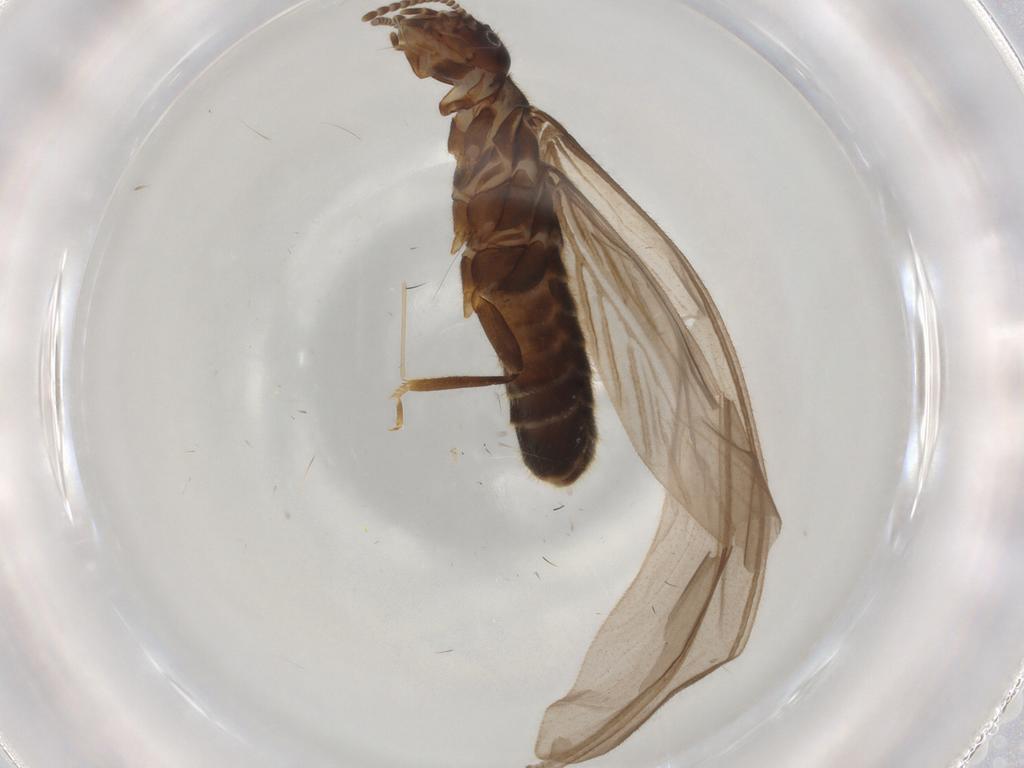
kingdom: Animalia
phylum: Arthropoda
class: Insecta
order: Blattodea
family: Termitidae
